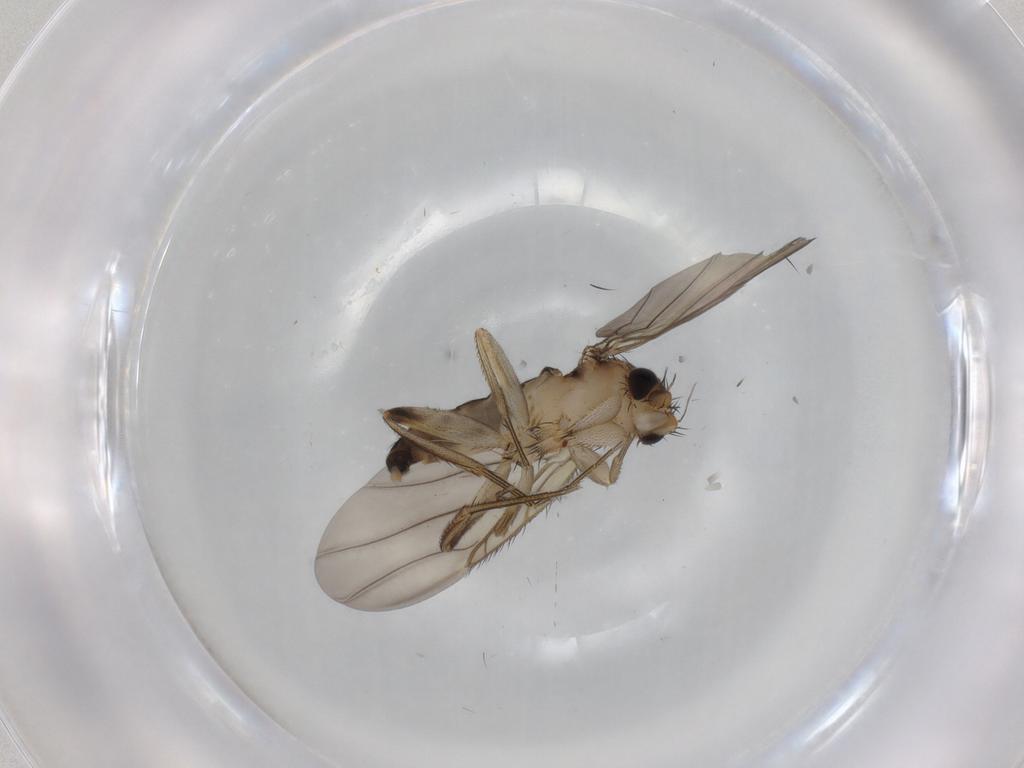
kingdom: Animalia
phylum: Arthropoda
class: Insecta
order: Diptera
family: Phoridae
